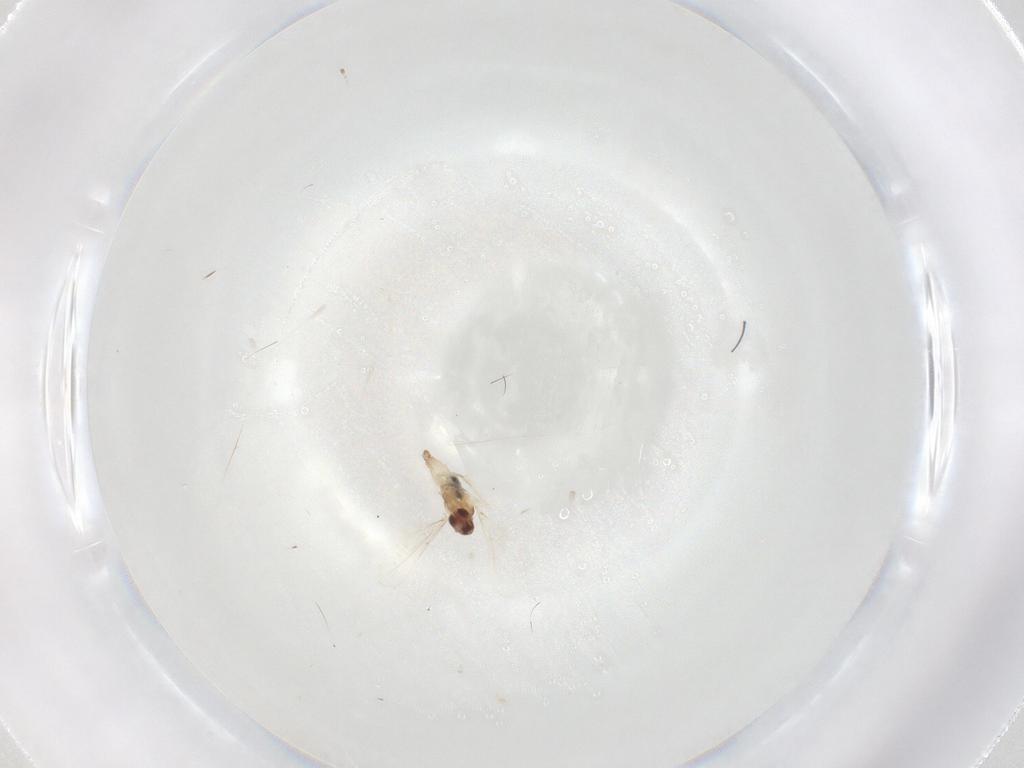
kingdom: Animalia
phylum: Arthropoda
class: Insecta
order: Diptera
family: Cecidomyiidae
